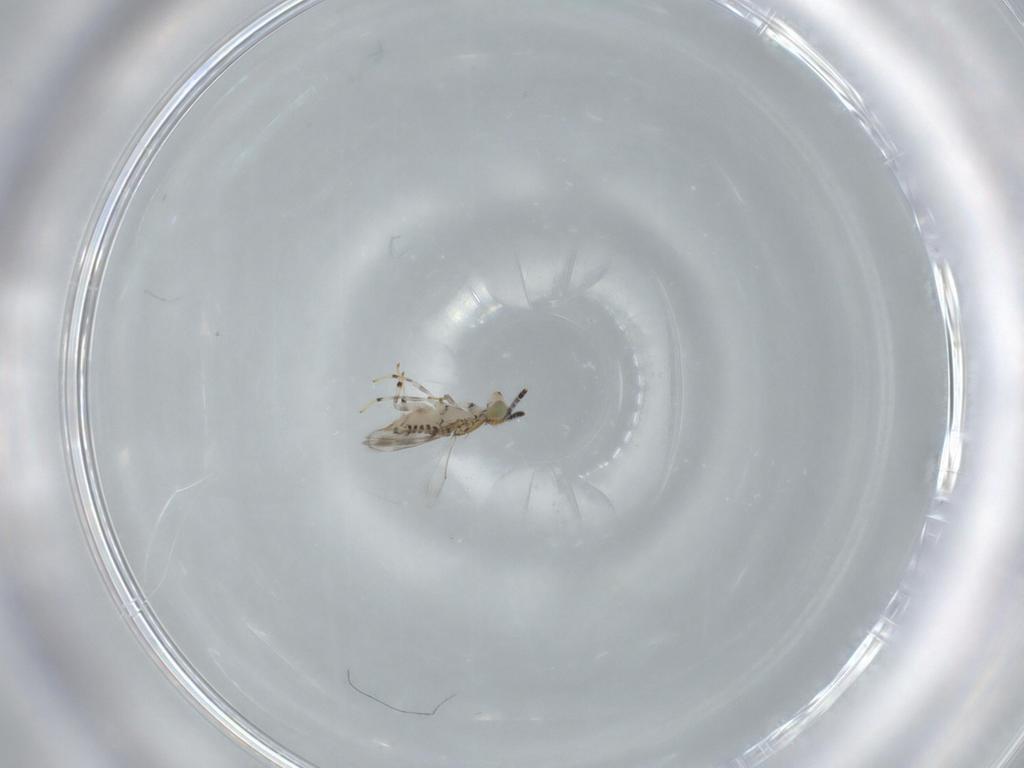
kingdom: Animalia
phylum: Arthropoda
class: Insecta
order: Hymenoptera
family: Aphelinidae
